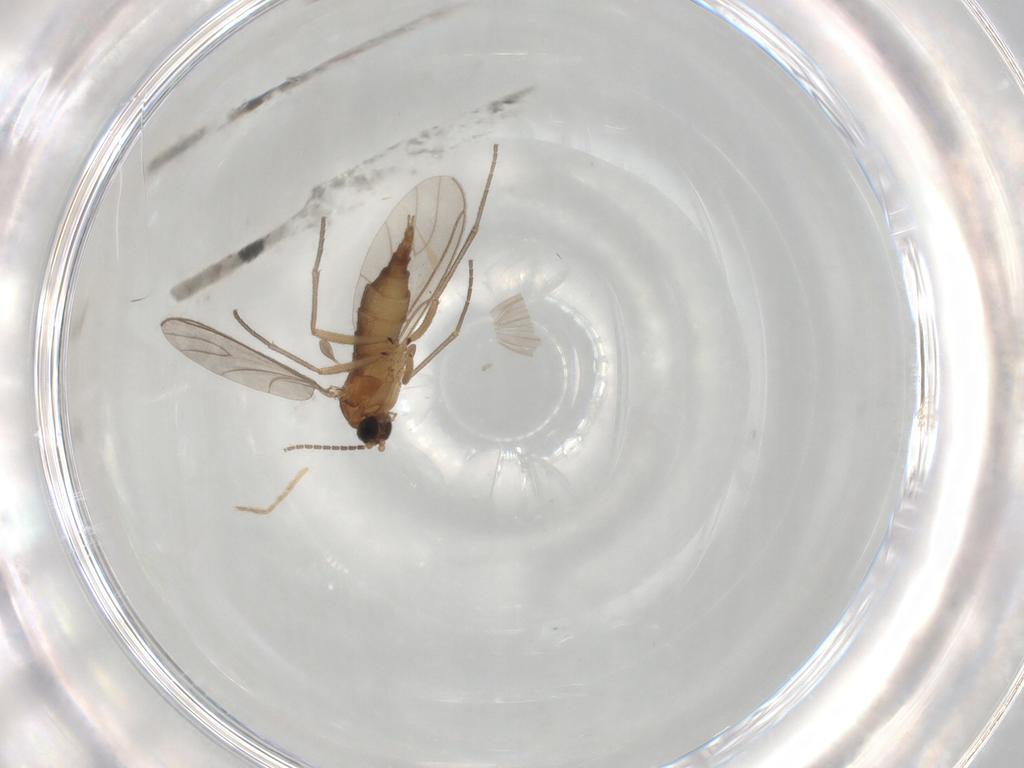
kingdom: Animalia
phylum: Arthropoda
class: Insecta
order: Diptera
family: Sciaridae
